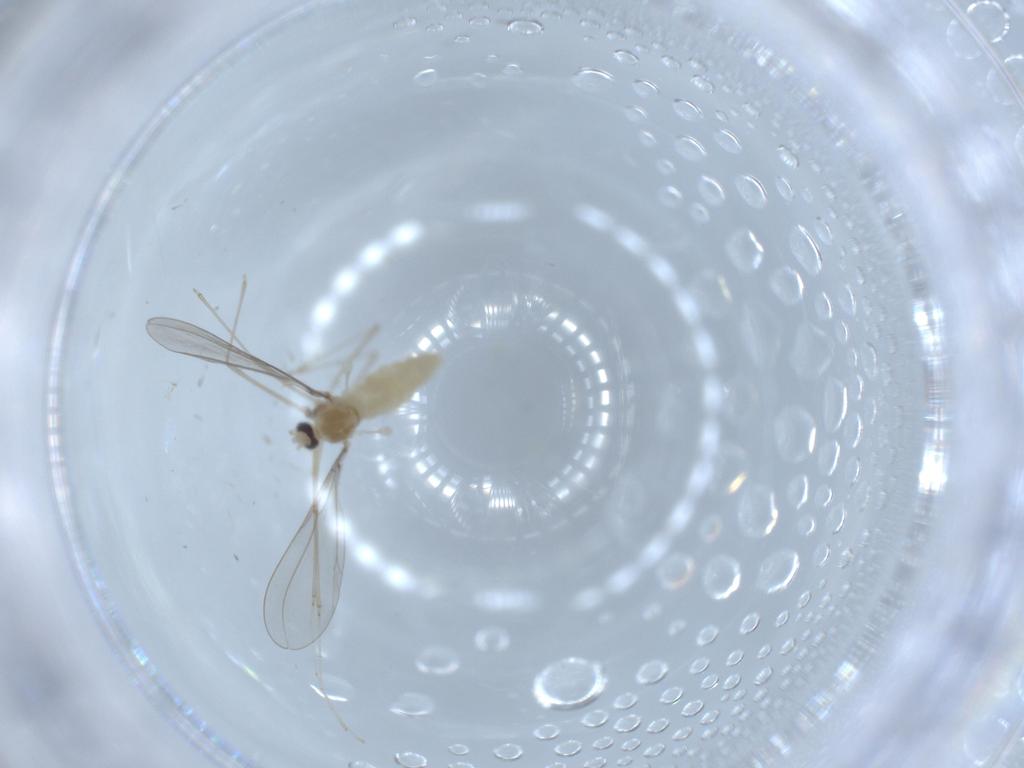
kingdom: Animalia
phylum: Arthropoda
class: Insecta
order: Diptera
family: Cecidomyiidae
